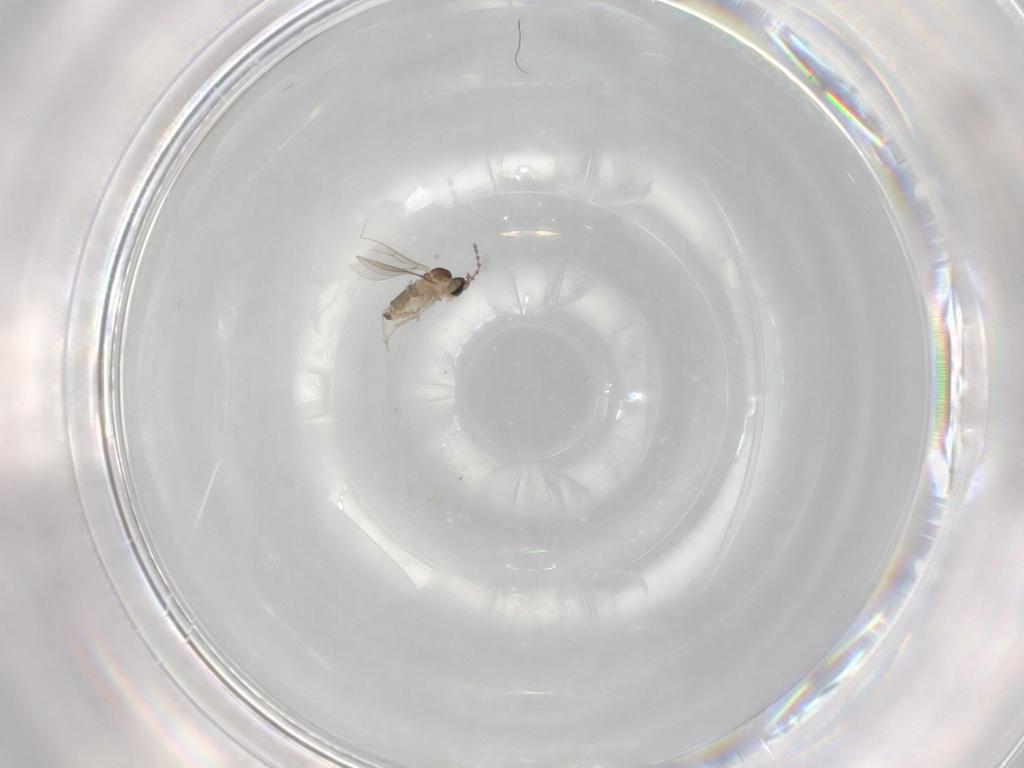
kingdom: Animalia
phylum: Arthropoda
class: Insecta
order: Diptera
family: Cecidomyiidae
